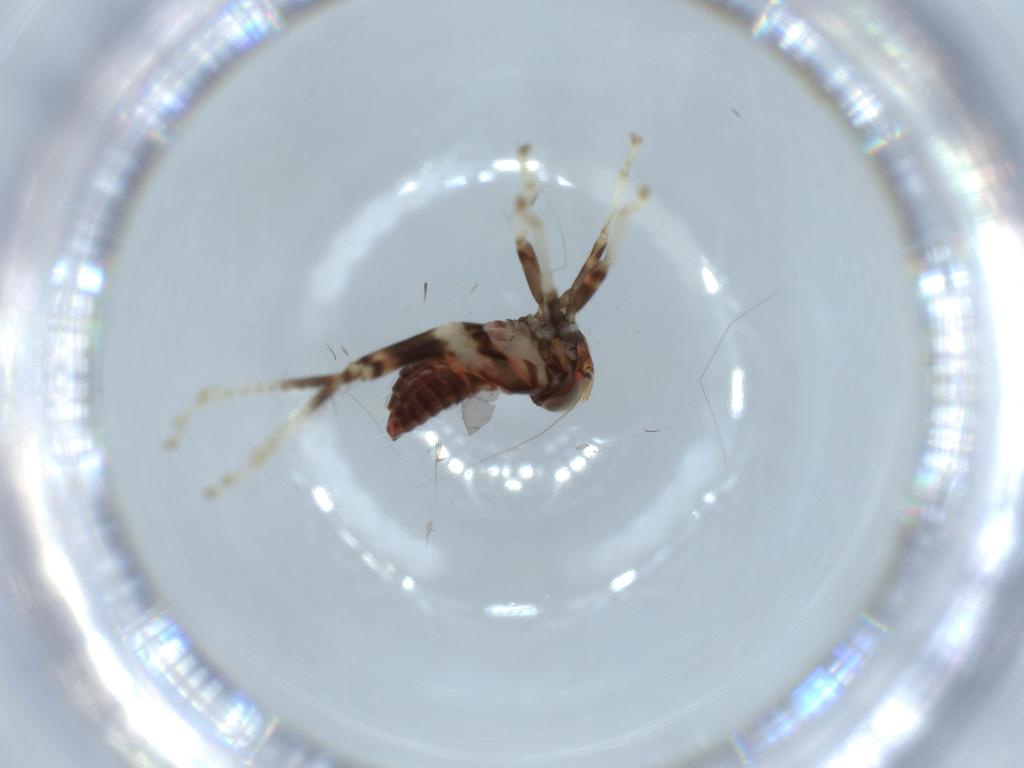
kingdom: Animalia
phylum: Arthropoda
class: Insecta
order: Hemiptera
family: Cicadellidae
